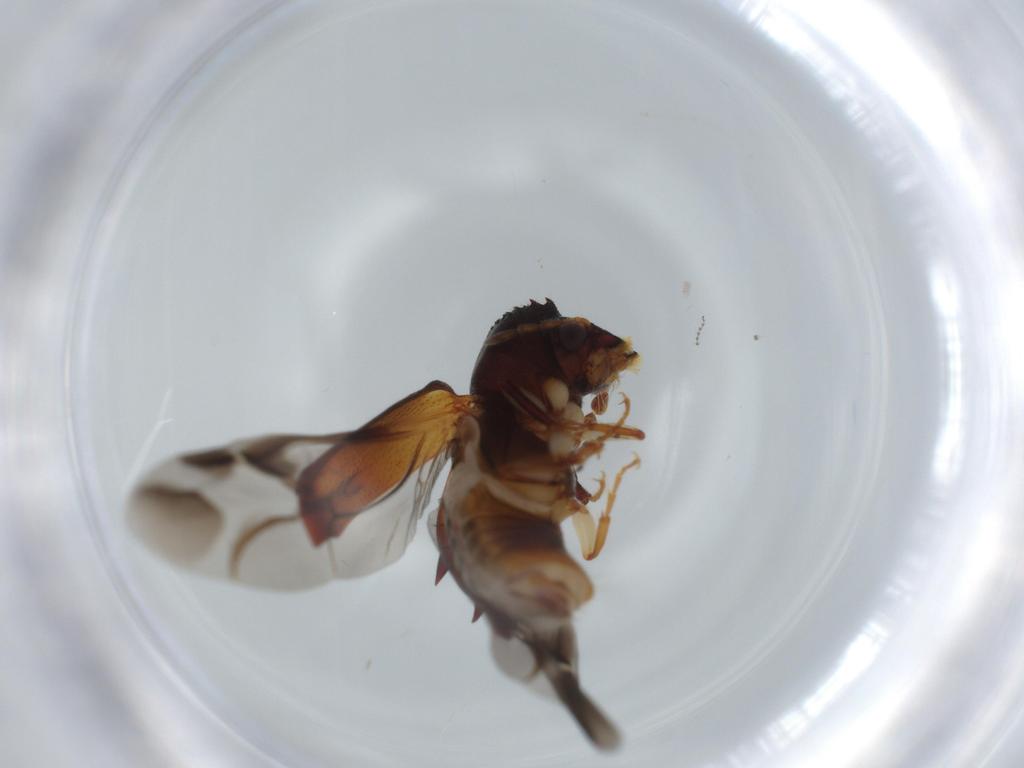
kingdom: Animalia
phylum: Arthropoda
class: Insecta
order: Coleoptera
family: Bostrichidae
